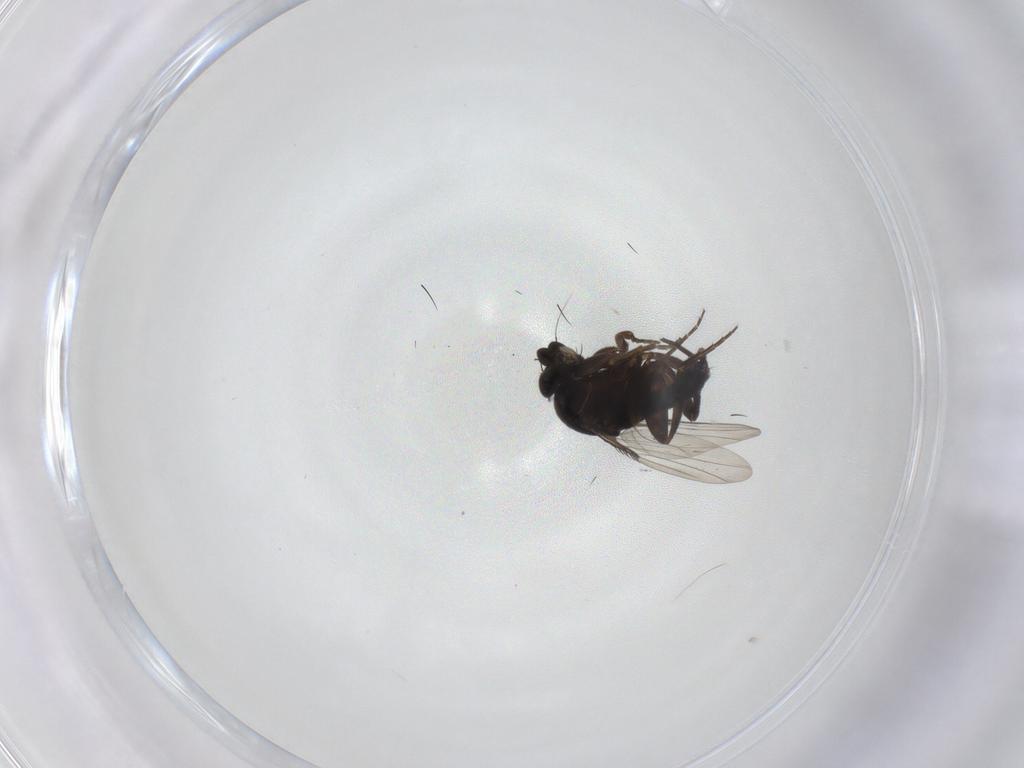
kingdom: Animalia
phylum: Arthropoda
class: Insecta
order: Diptera
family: Phoridae
